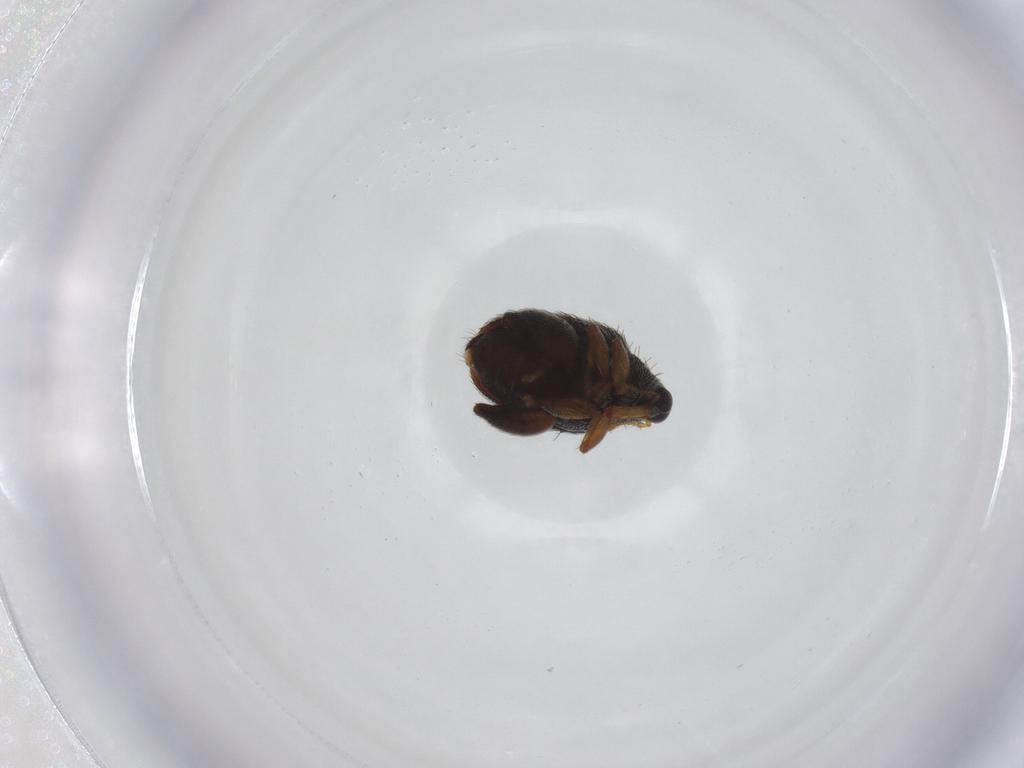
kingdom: Animalia
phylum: Arthropoda
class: Insecta
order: Coleoptera
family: Curculionidae
